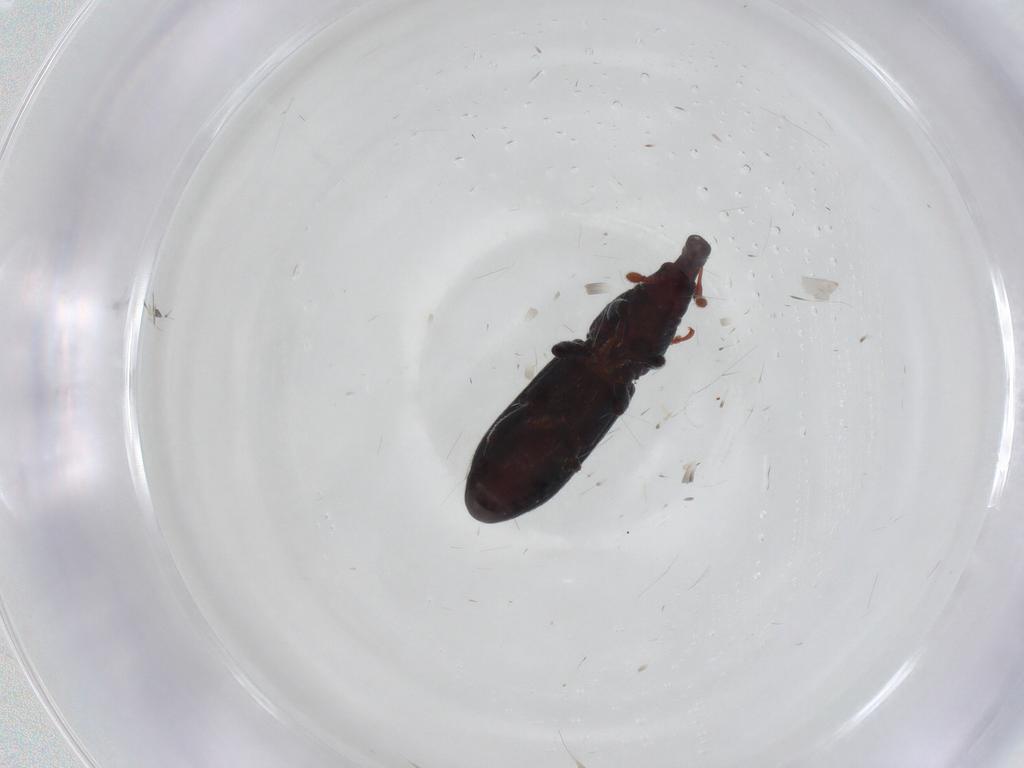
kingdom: Animalia
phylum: Arthropoda
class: Insecta
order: Coleoptera
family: Curculionidae
